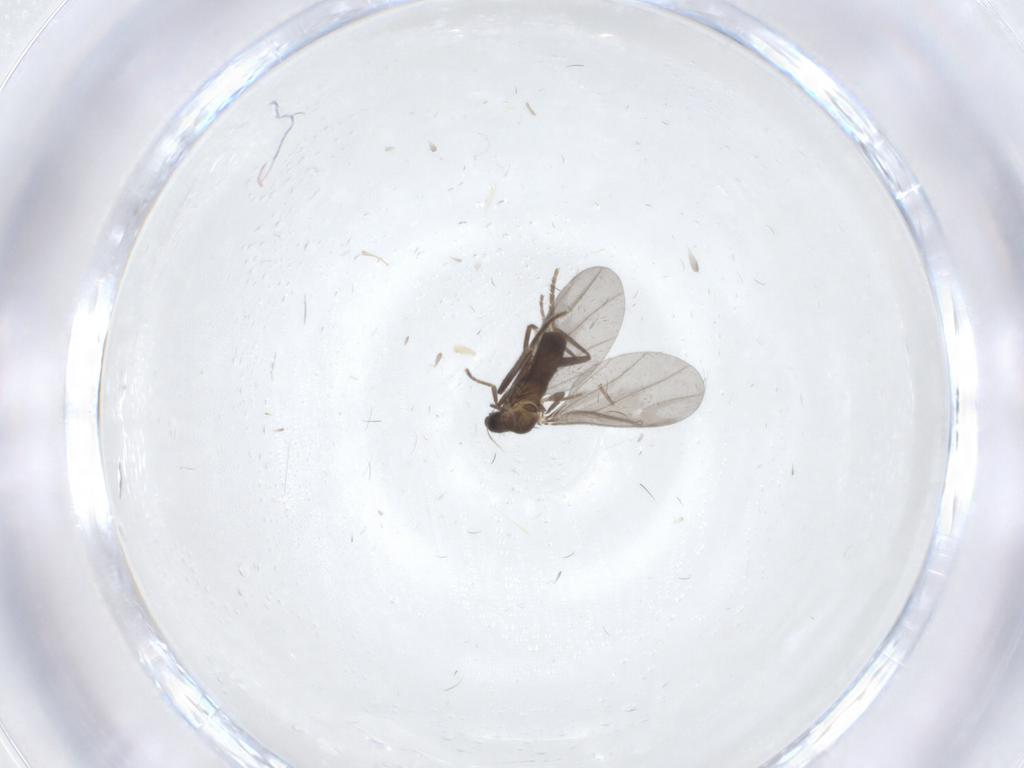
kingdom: Animalia
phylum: Arthropoda
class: Insecta
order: Diptera
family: Phoridae
